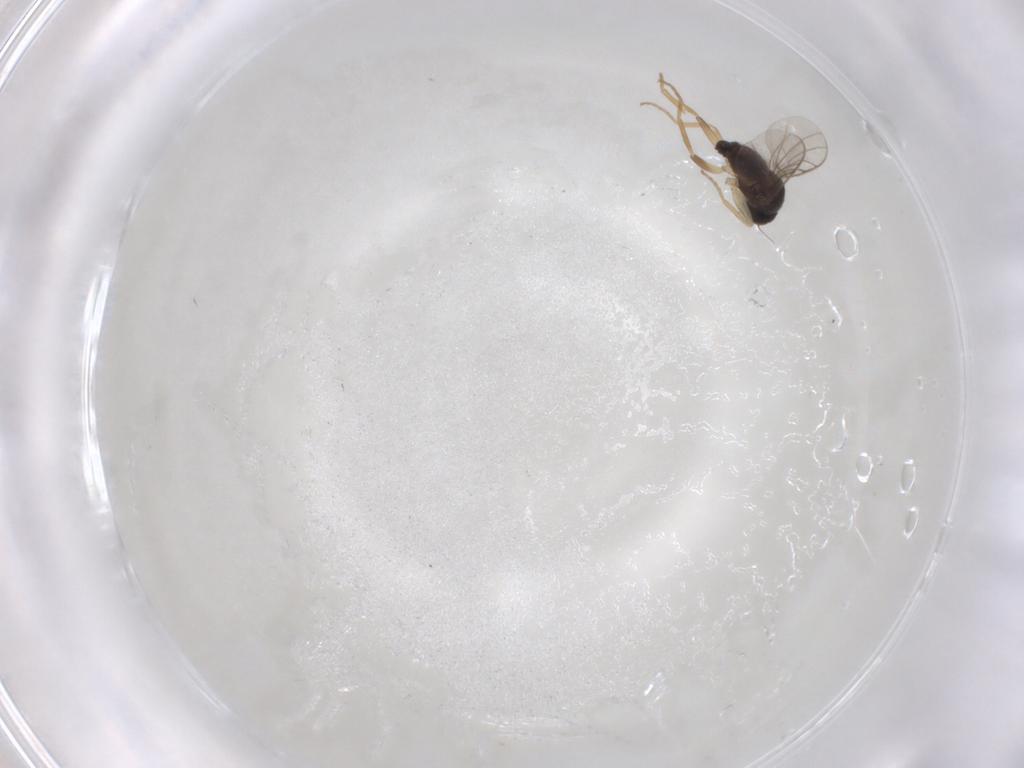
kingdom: Animalia
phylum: Arthropoda
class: Insecta
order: Diptera
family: Hybotidae
